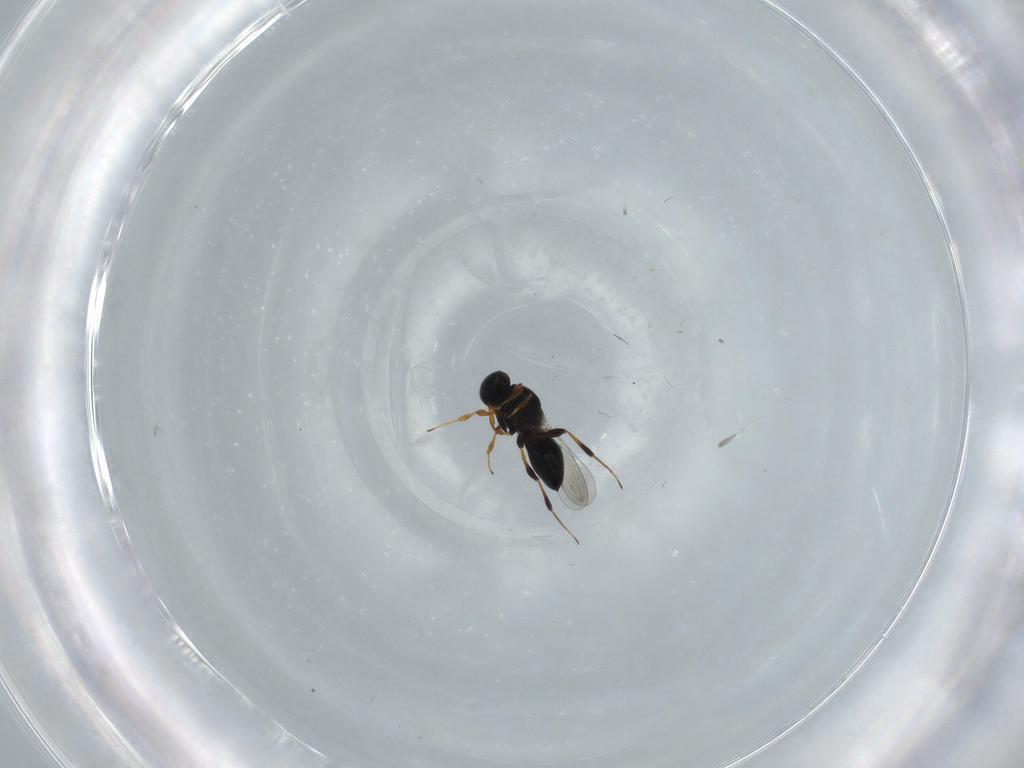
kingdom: Animalia
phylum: Arthropoda
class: Insecta
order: Hymenoptera
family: Platygastridae
